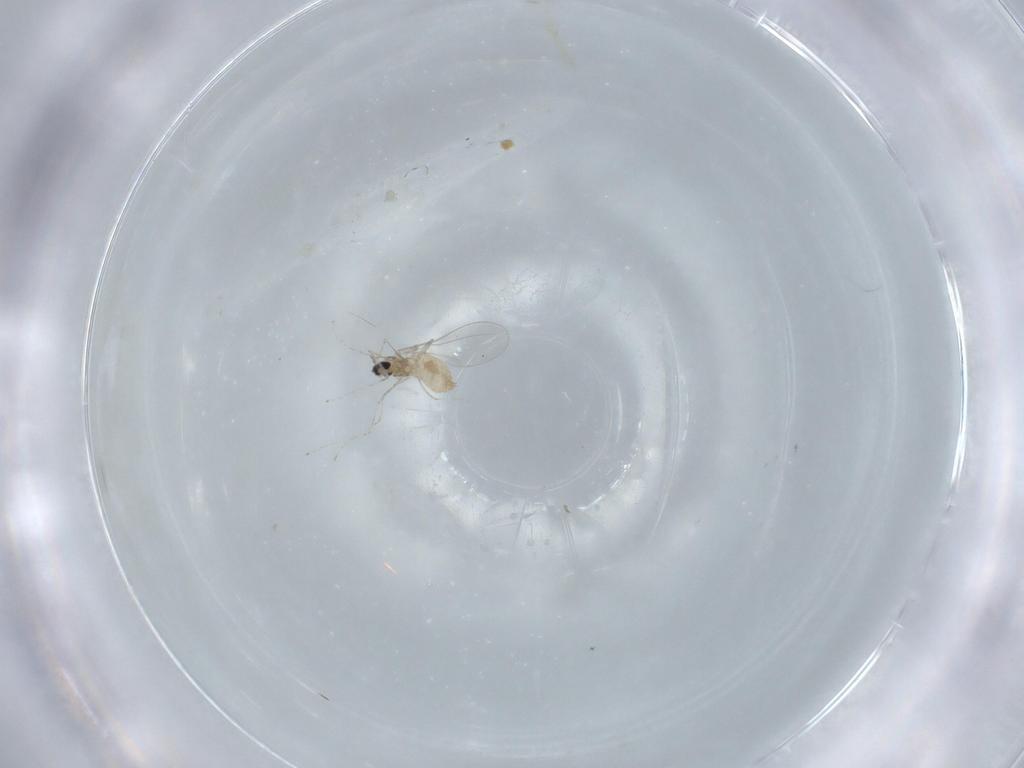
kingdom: Animalia
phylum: Arthropoda
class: Insecta
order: Diptera
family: Cecidomyiidae
